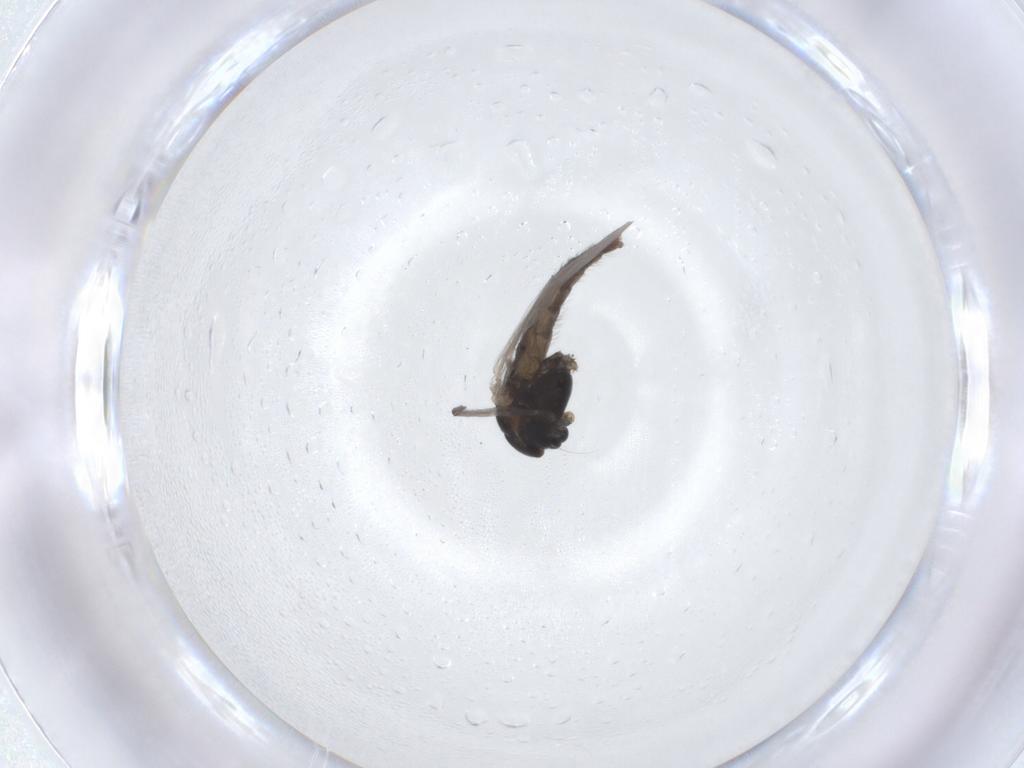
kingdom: Animalia
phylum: Arthropoda
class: Insecta
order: Diptera
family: Chironomidae
